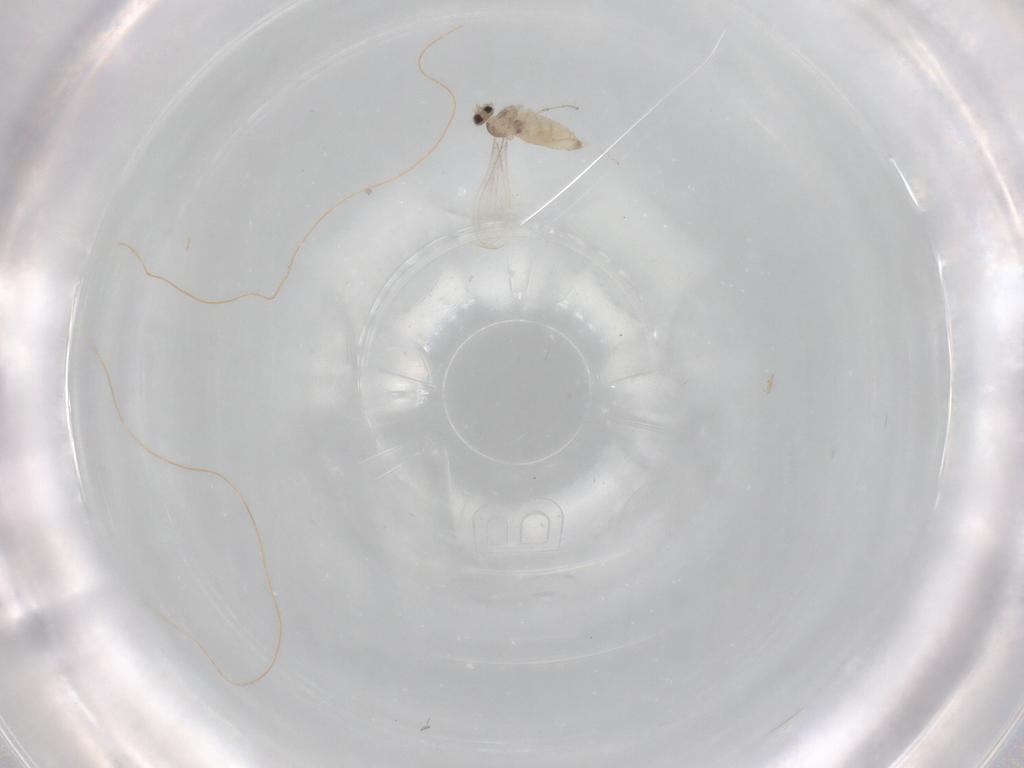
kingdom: Animalia
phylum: Arthropoda
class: Insecta
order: Diptera
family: Cecidomyiidae
